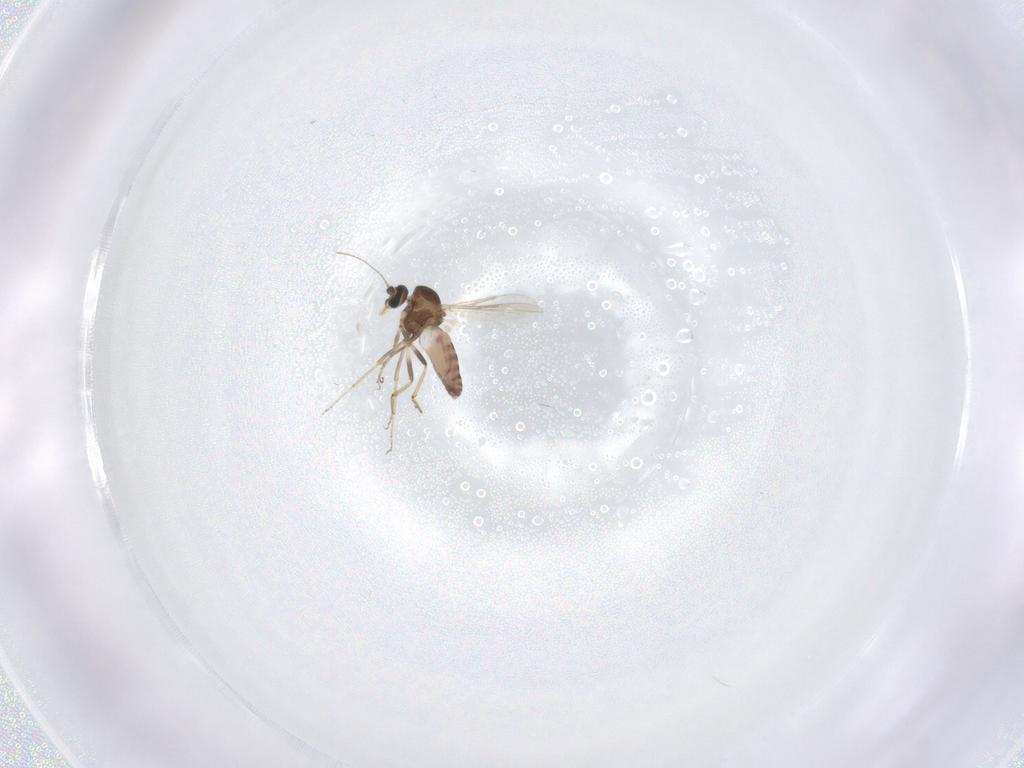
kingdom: Animalia
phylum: Arthropoda
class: Insecta
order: Diptera
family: Ceratopogonidae
